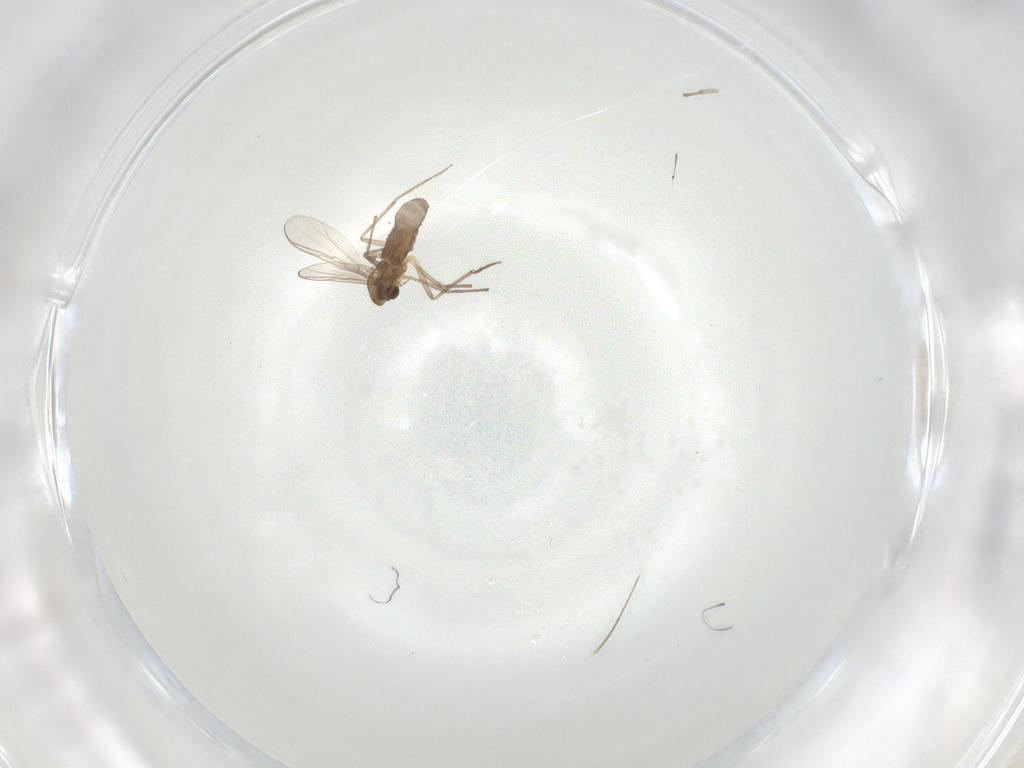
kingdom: Animalia
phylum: Arthropoda
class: Insecta
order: Diptera
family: Chironomidae
